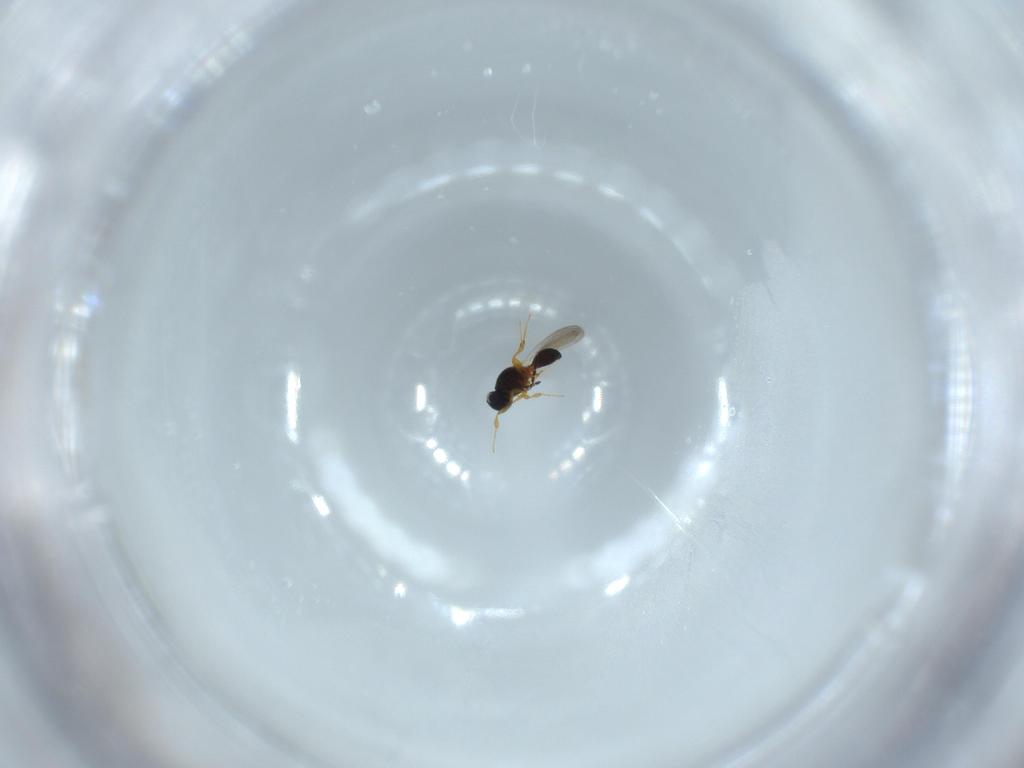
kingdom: Animalia
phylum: Arthropoda
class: Insecta
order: Hymenoptera
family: Platygastridae
